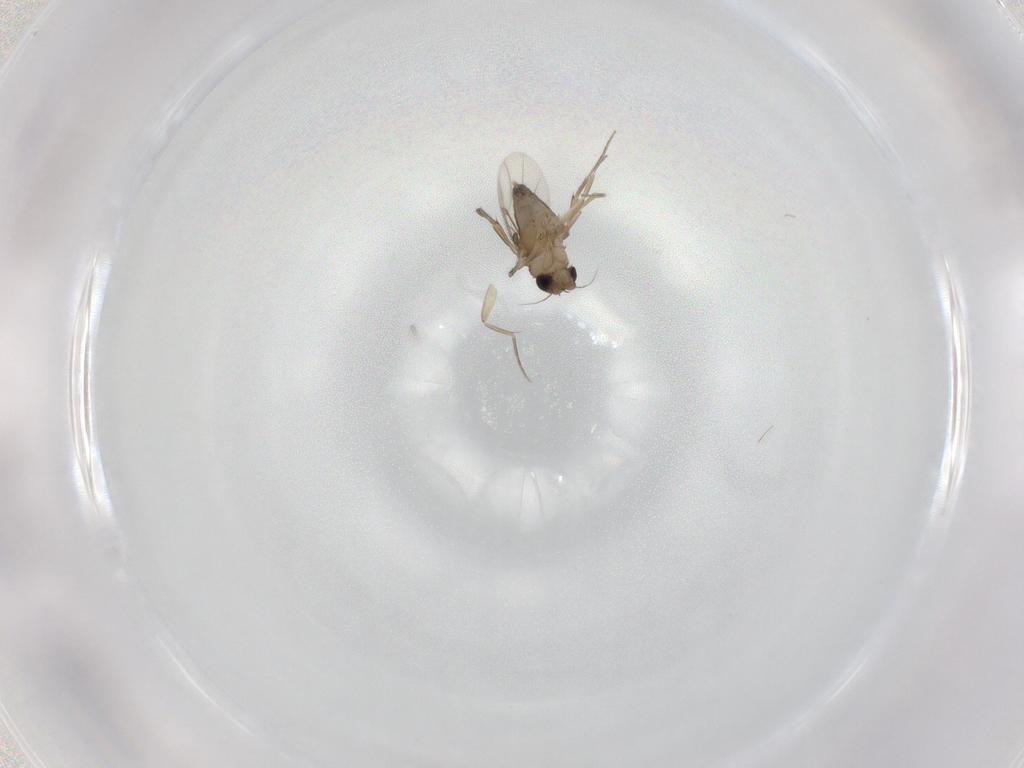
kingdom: Animalia
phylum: Arthropoda
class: Insecta
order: Diptera
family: Phoridae
